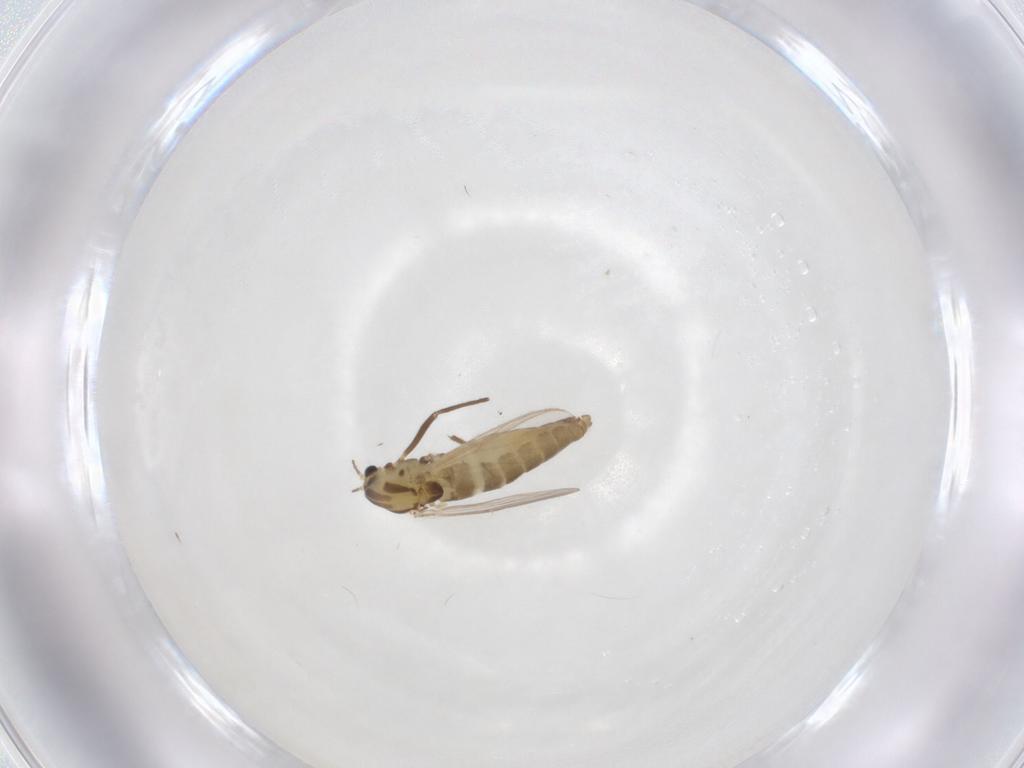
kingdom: Animalia
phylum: Arthropoda
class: Insecta
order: Diptera
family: Chironomidae
